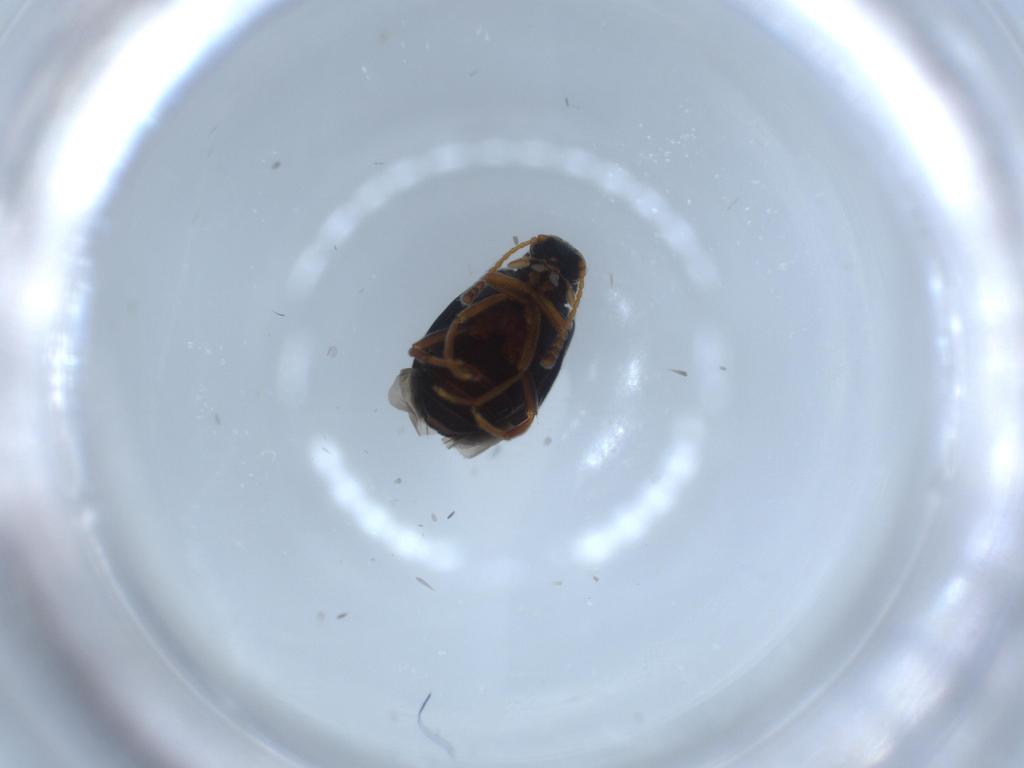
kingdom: Animalia
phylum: Arthropoda
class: Insecta
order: Coleoptera
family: Aderidae
